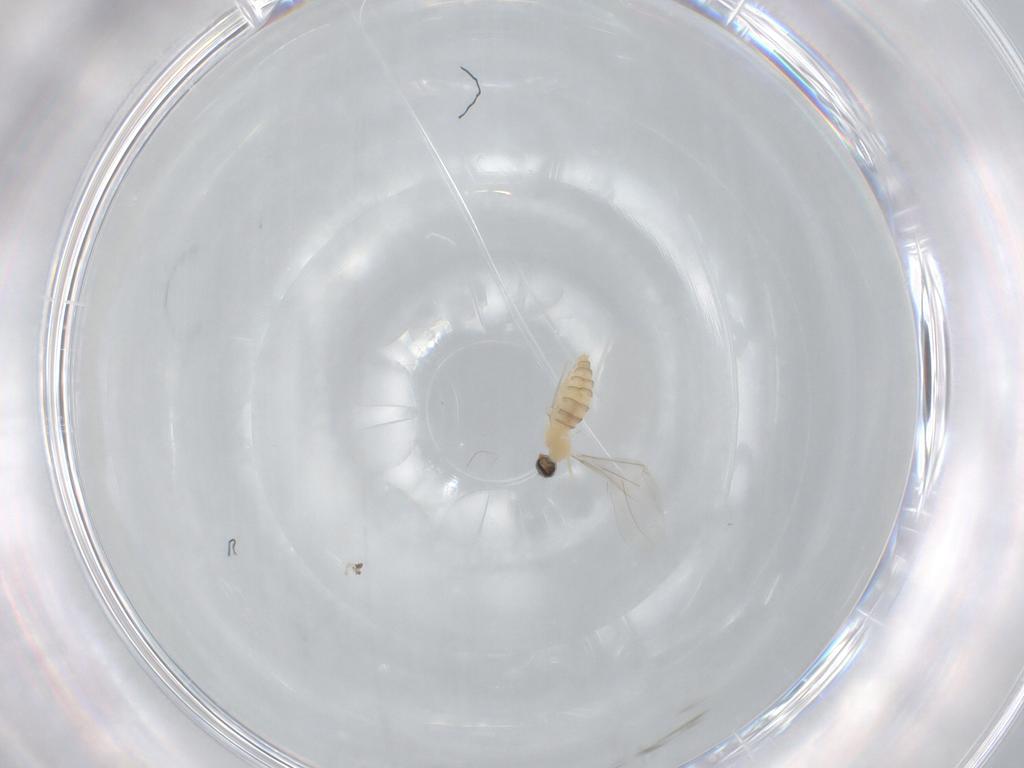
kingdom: Animalia
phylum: Arthropoda
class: Insecta
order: Diptera
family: Cecidomyiidae
